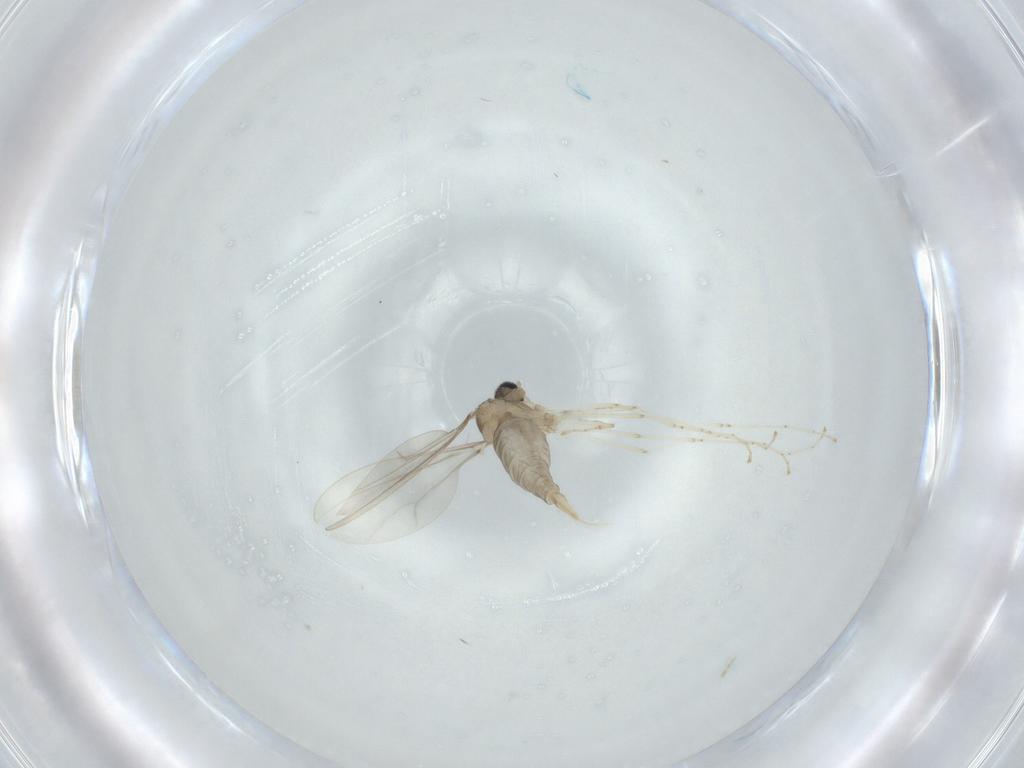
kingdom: Animalia
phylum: Arthropoda
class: Insecta
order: Diptera
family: Cecidomyiidae
